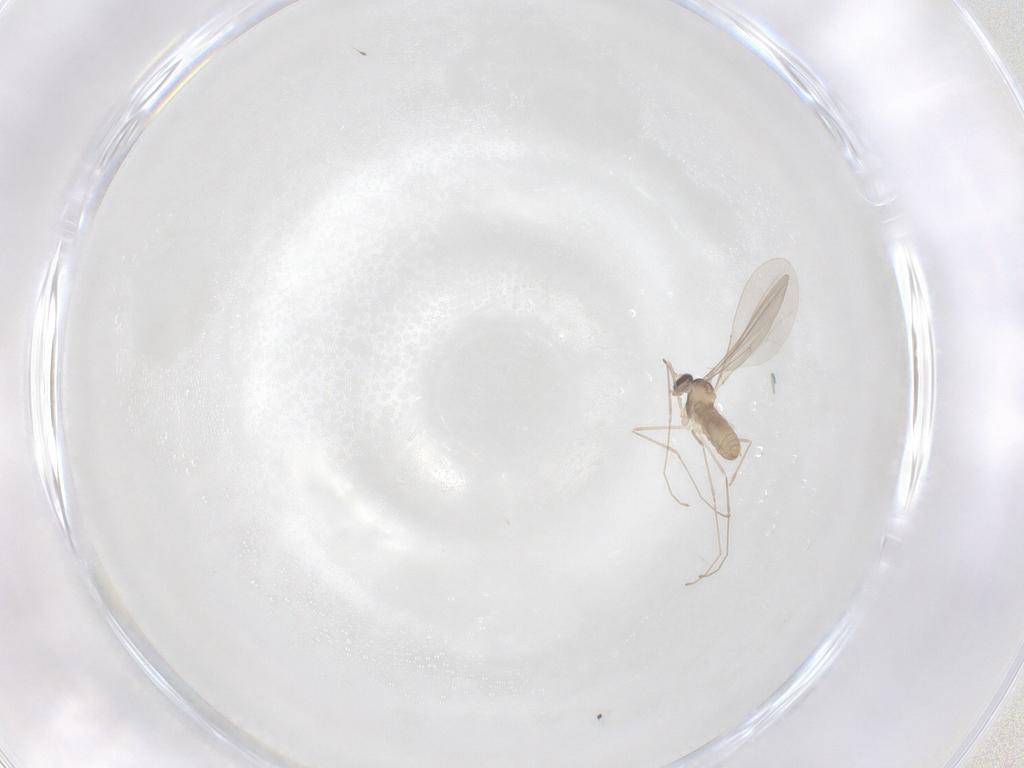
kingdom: Animalia
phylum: Arthropoda
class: Insecta
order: Diptera
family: Cecidomyiidae
